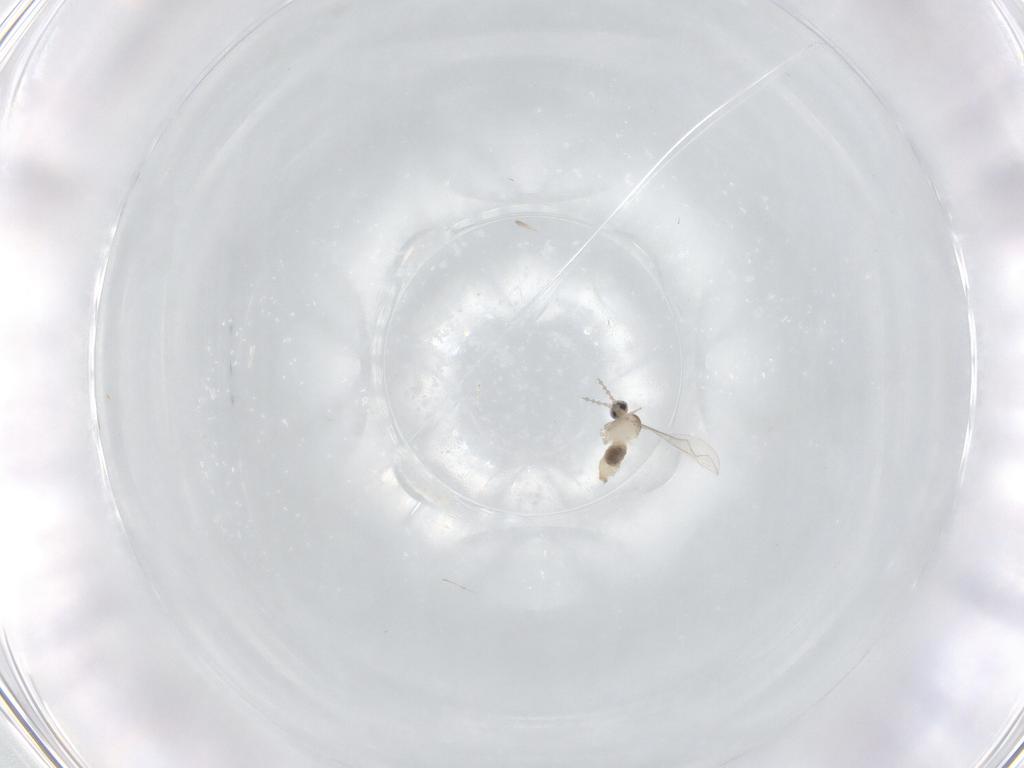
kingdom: Animalia
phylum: Arthropoda
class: Insecta
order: Diptera
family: Cecidomyiidae
